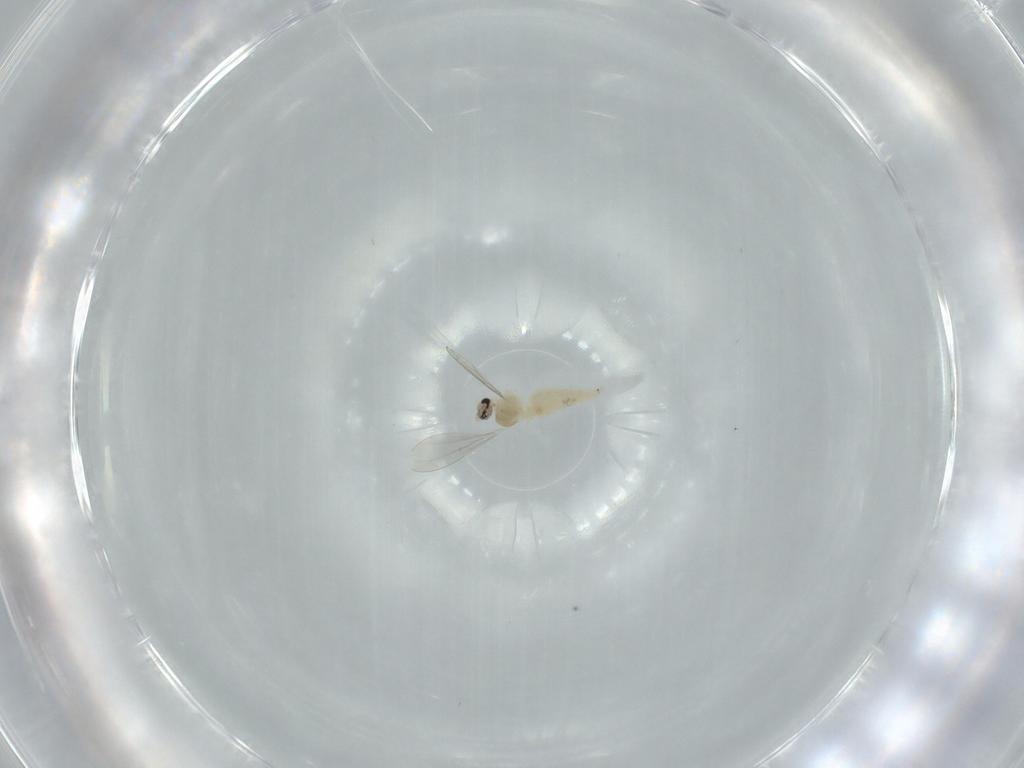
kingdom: Animalia
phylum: Arthropoda
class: Insecta
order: Diptera
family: Cecidomyiidae
